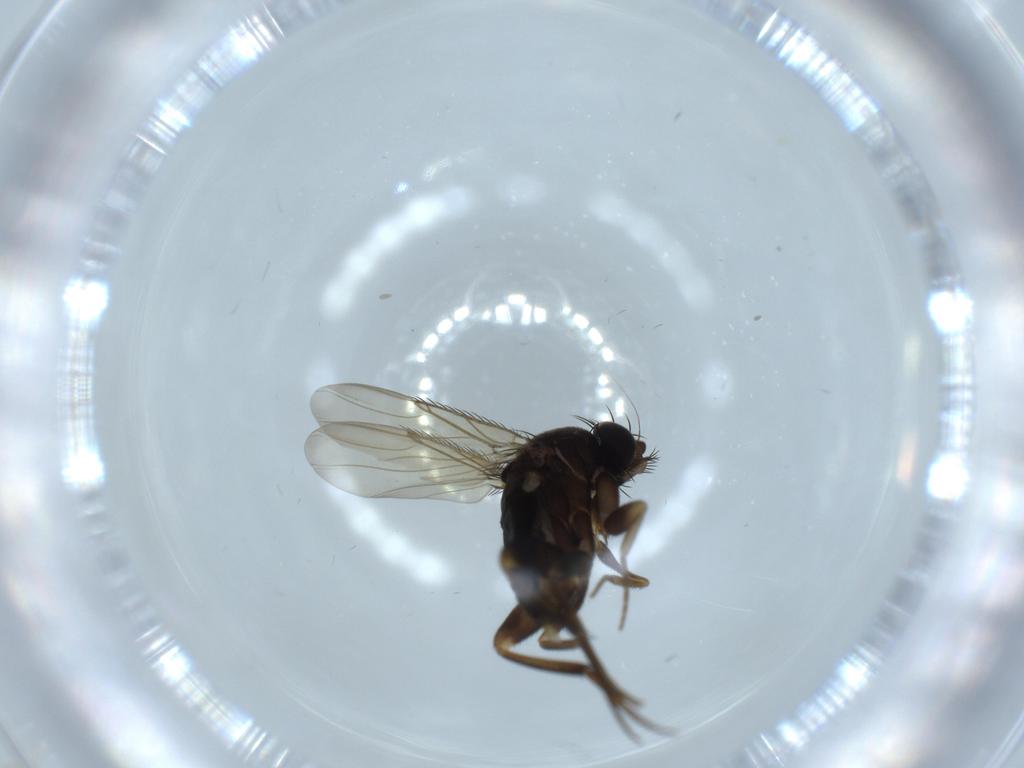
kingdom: Animalia
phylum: Arthropoda
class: Insecta
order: Diptera
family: Phoridae
